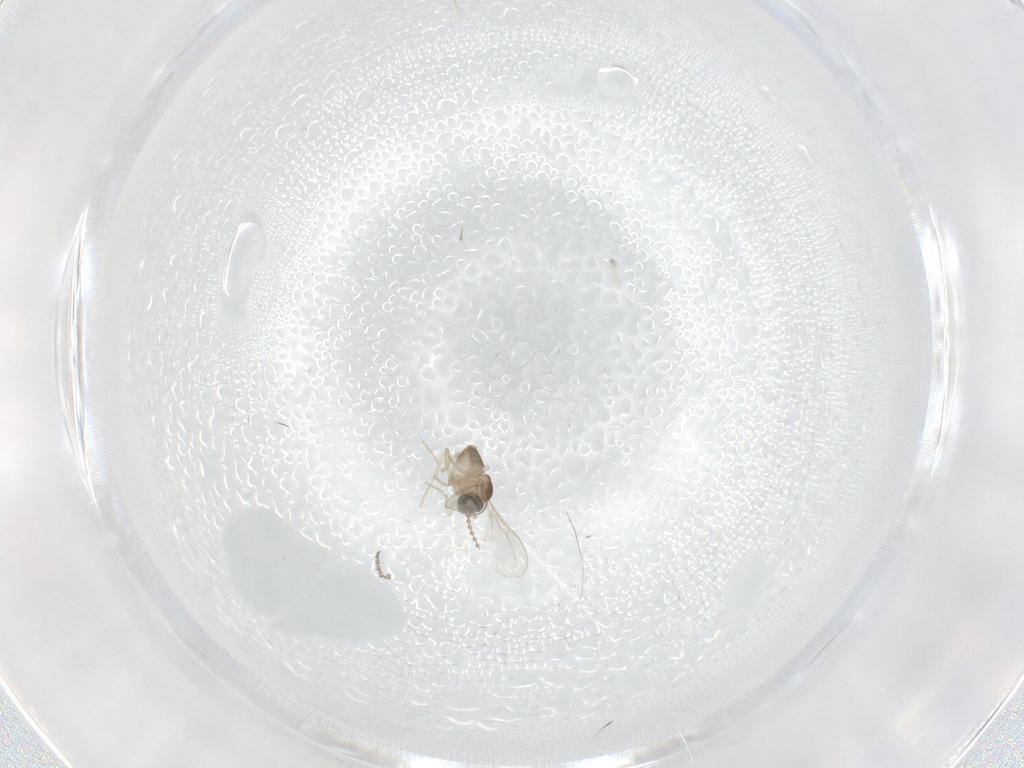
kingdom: Animalia
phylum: Arthropoda
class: Insecta
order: Diptera
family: Cecidomyiidae
